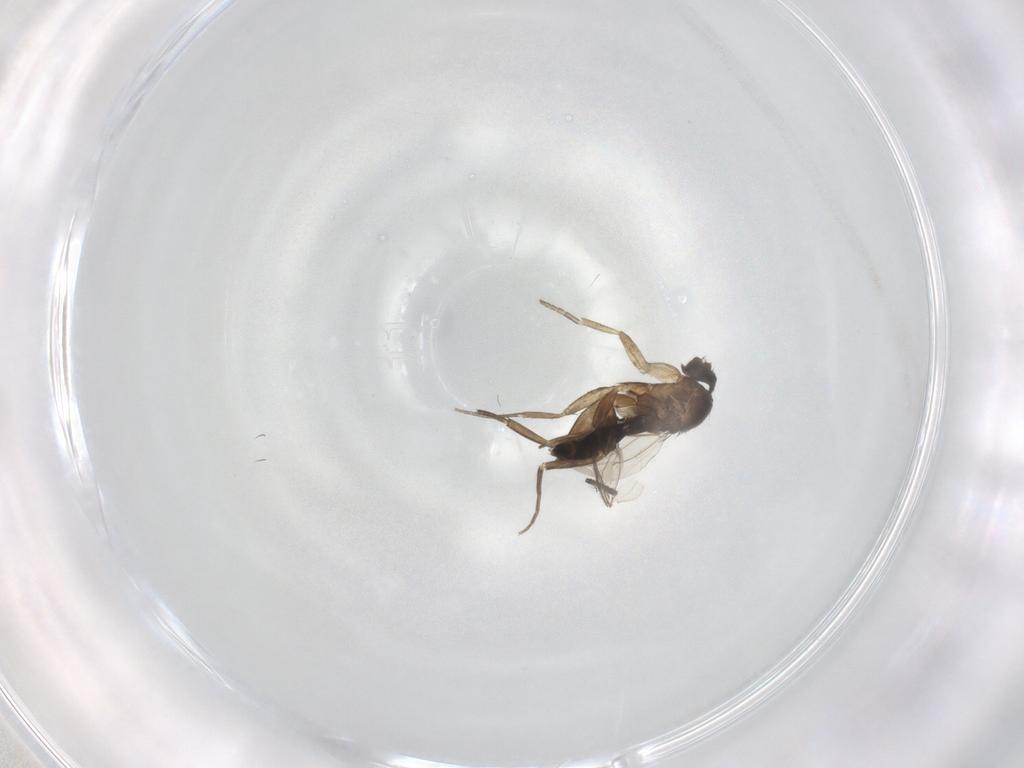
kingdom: Animalia
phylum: Arthropoda
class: Insecta
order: Diptera
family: Phoridae
